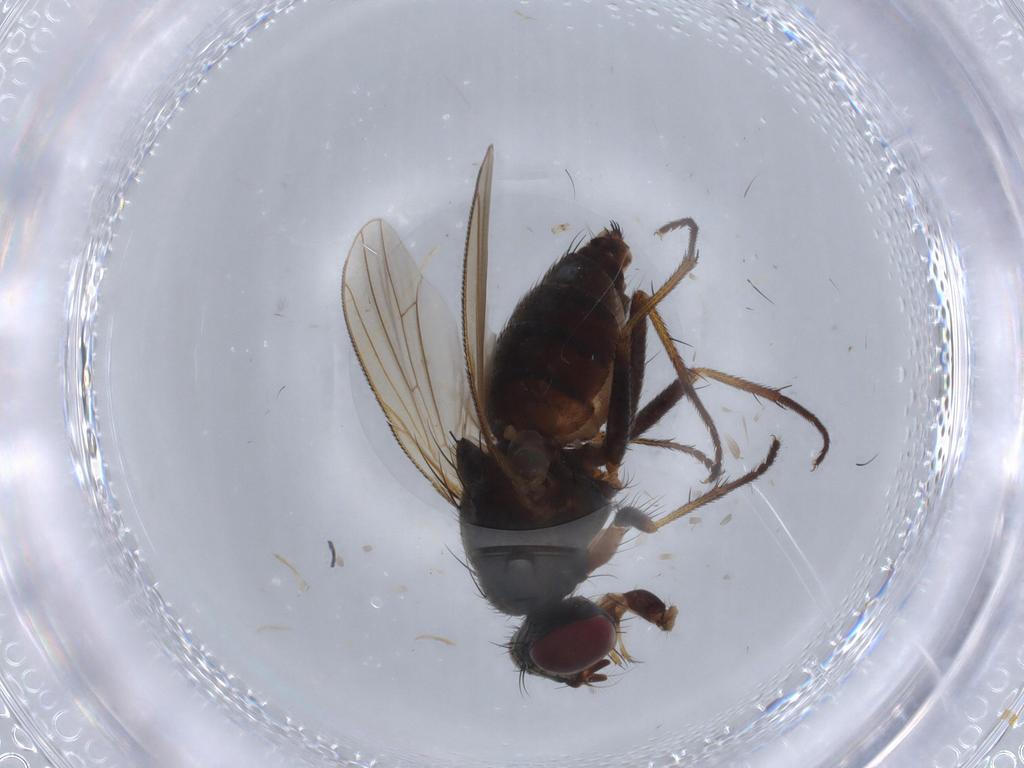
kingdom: Animalia
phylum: Arthropoda
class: Insecta
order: Diptera
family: Muscidae
